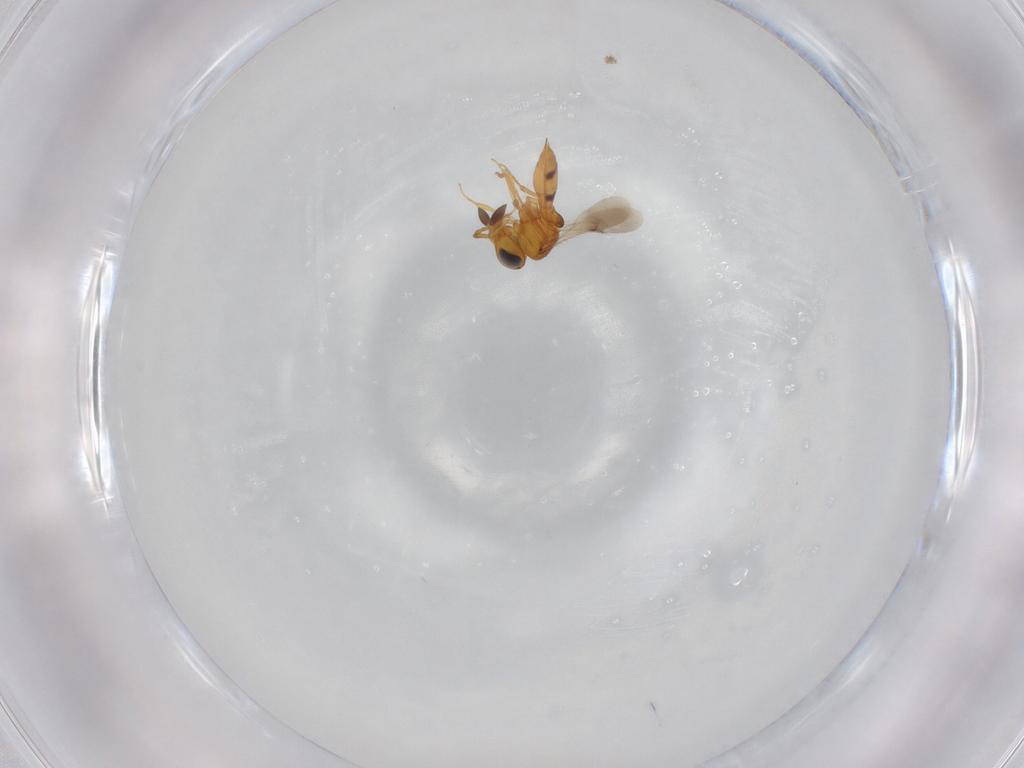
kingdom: Animalia
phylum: Arthropoda
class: Insecta
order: Hymenoptera
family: Scelionidae
